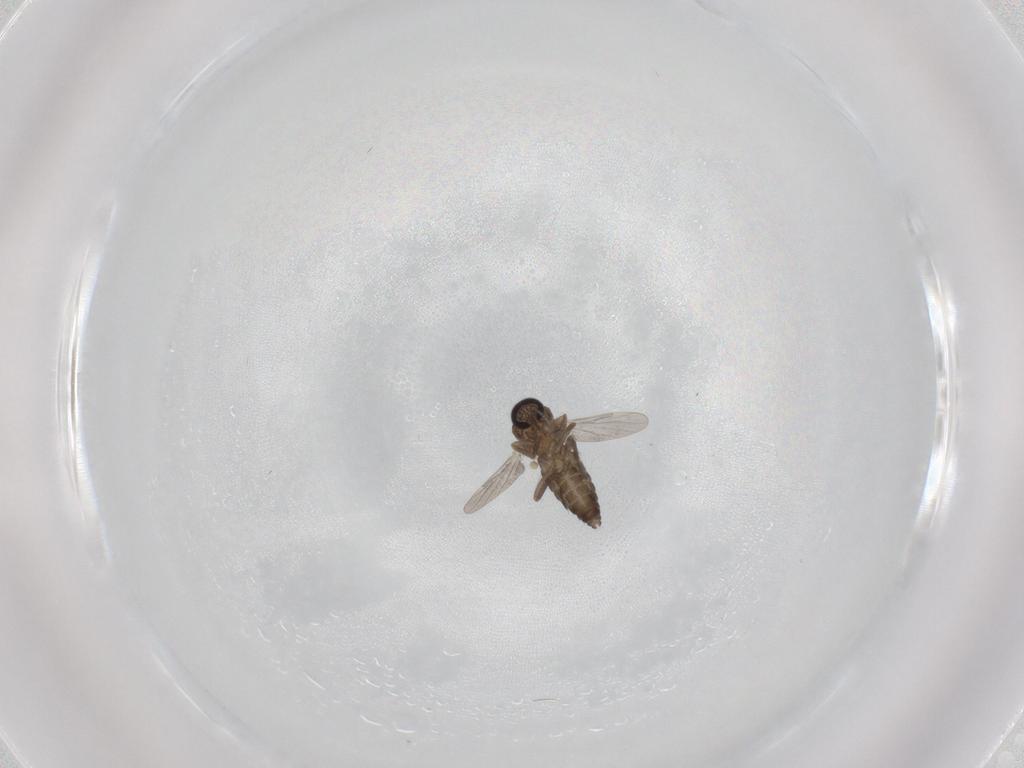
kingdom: Animalia
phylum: Arthropoda
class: Insecta
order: Diptera
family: Ceratopogonidae
